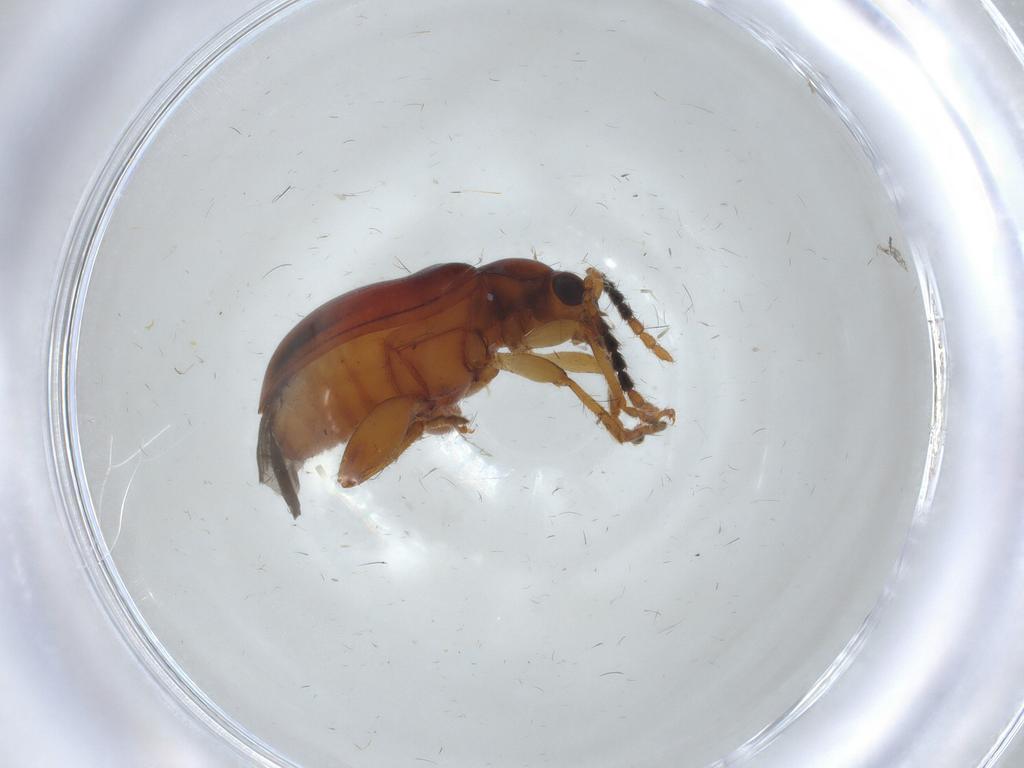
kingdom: Animalia
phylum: Arthropoda
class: Insecta
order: Coleoptera
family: Chrysomelidae
